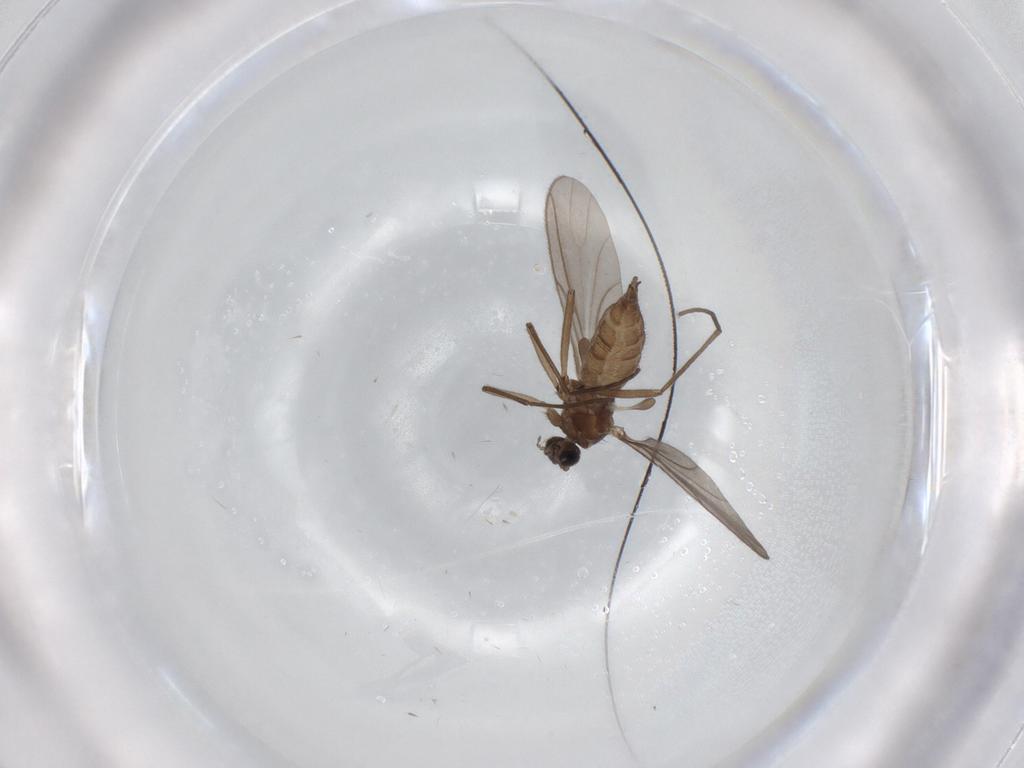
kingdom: Animalia
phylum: Arthropoda
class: Insecta
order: Diptera
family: Sciaridae
